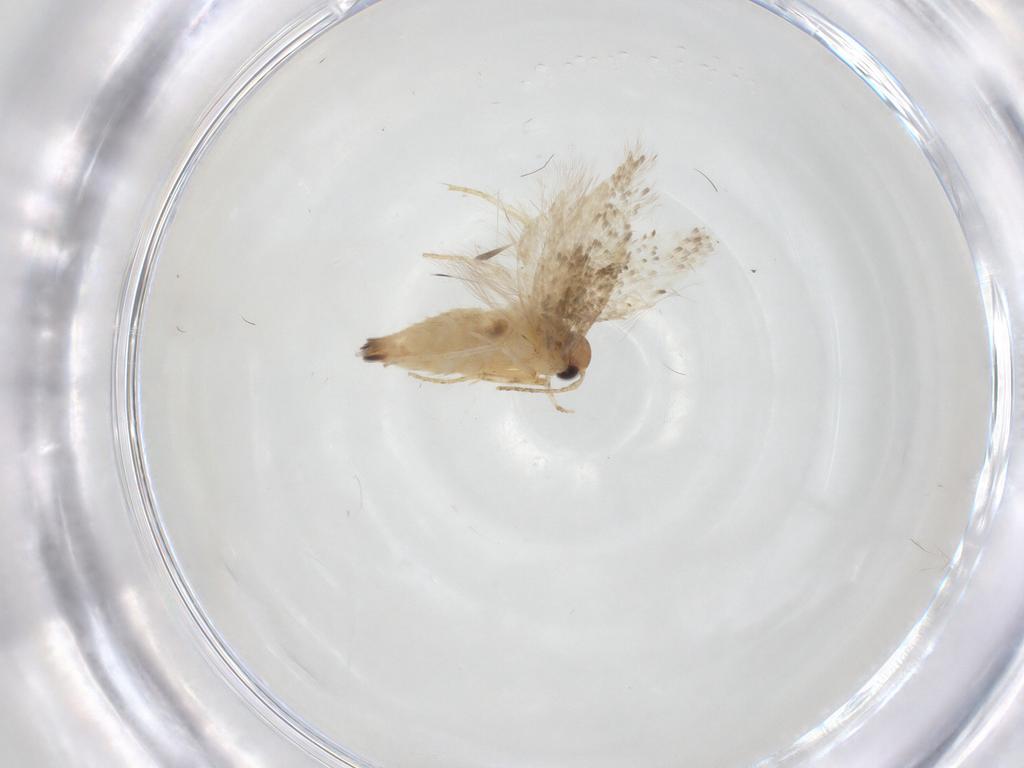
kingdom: Animalia
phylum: Arthropoda
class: Insecta
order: Lepidoptera
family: Gelechiidae
